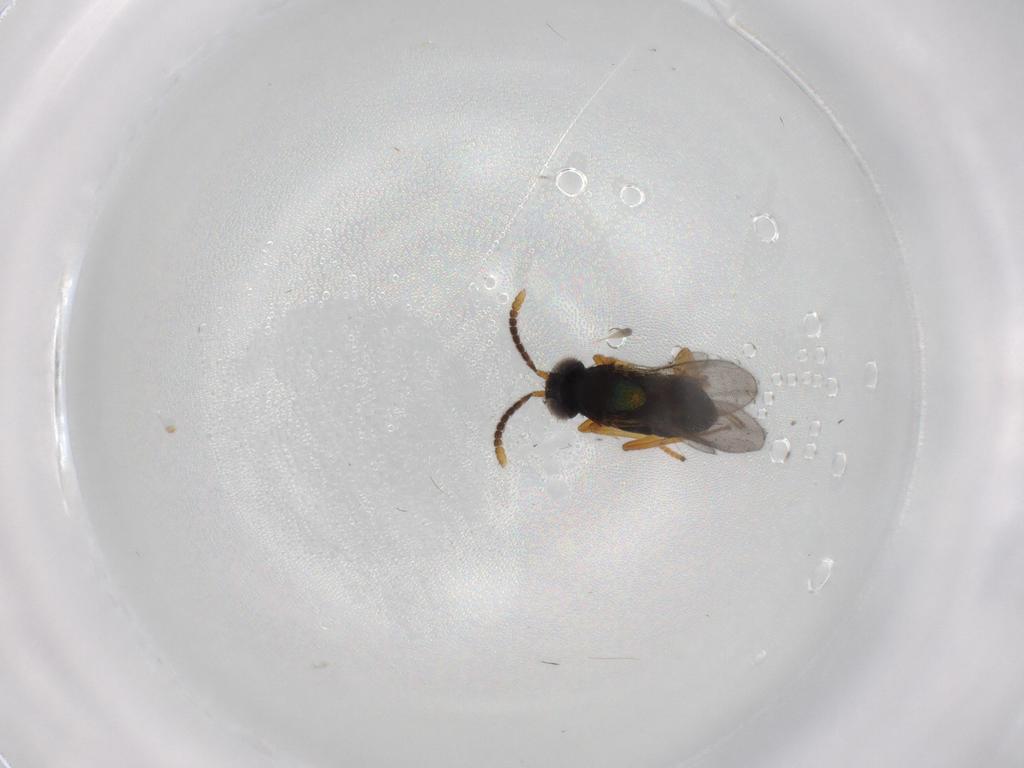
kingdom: Animalia
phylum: Arthropoda
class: Insecta
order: Hymenoptera
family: Encyrtidae
